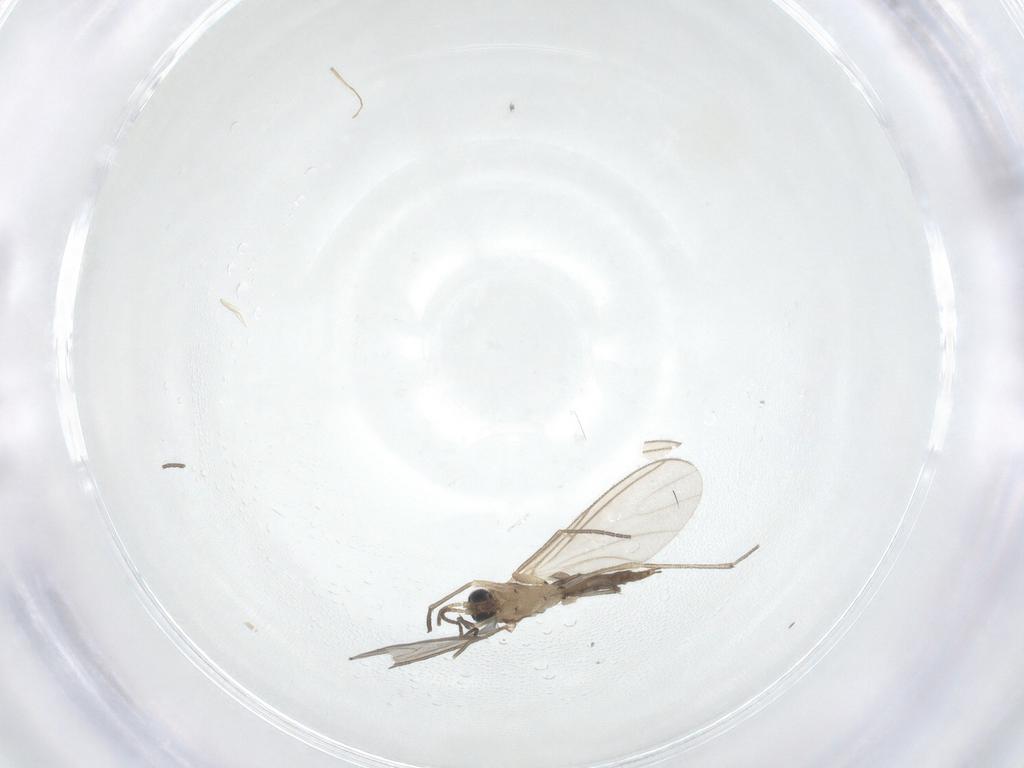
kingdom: Animalia
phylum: Arthropoda
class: Insecta
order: Diptera
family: Sciaridae
